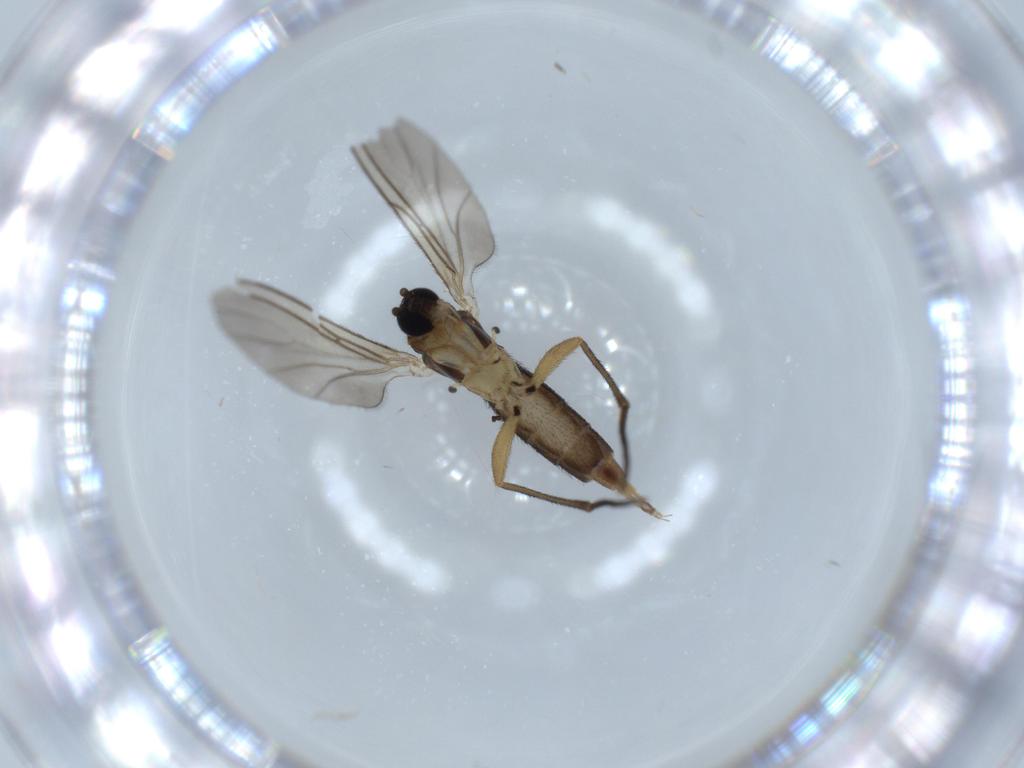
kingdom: Animalia
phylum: Arthropoda
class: Insecta
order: Diptera
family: Sciaridae
